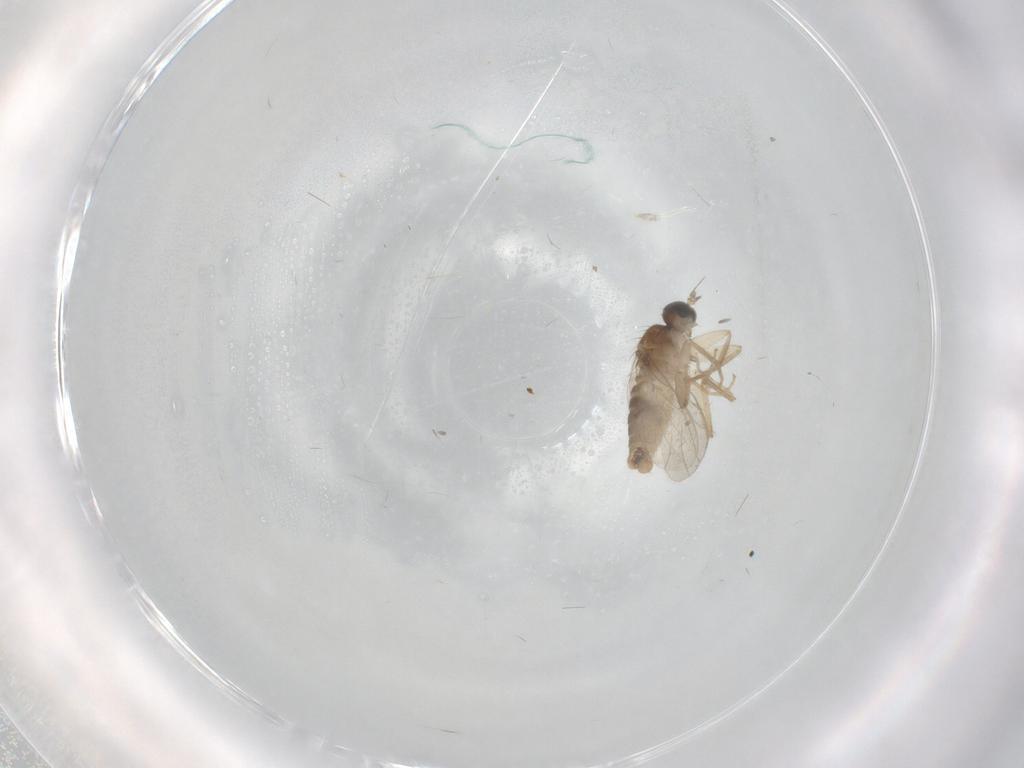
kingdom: Animalia
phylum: Arthropoda
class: Insecta
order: Diptera
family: Hybotidae
